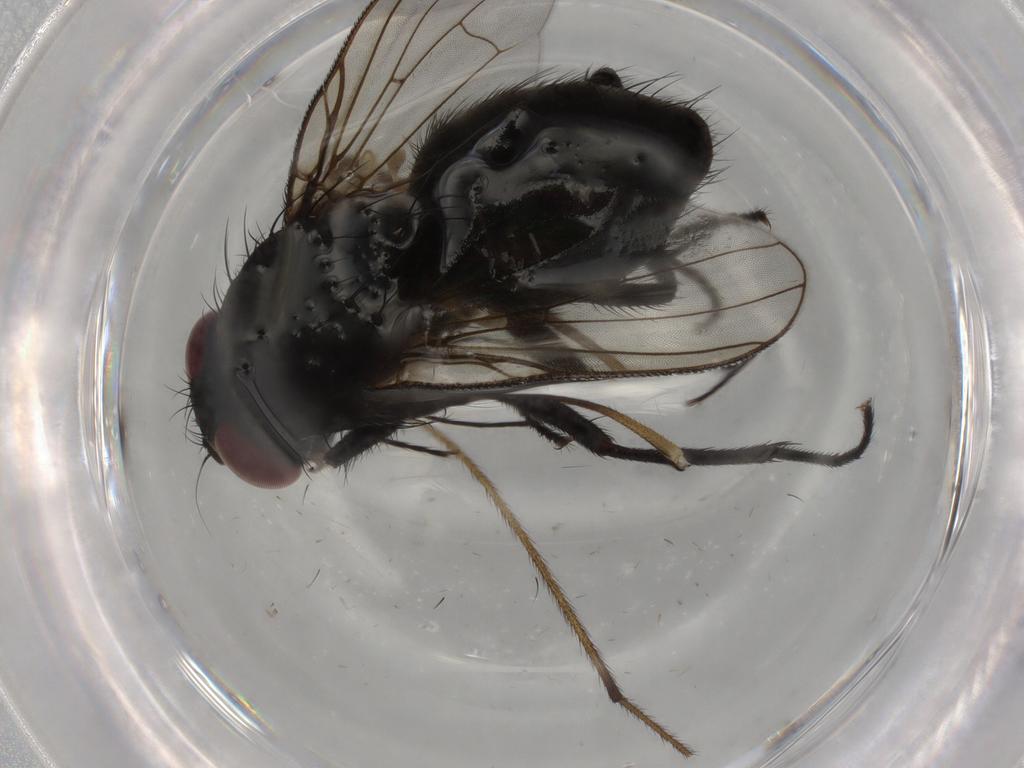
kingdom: Animalia
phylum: Arthropoda
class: Insecta
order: Diptera
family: Muscidae
